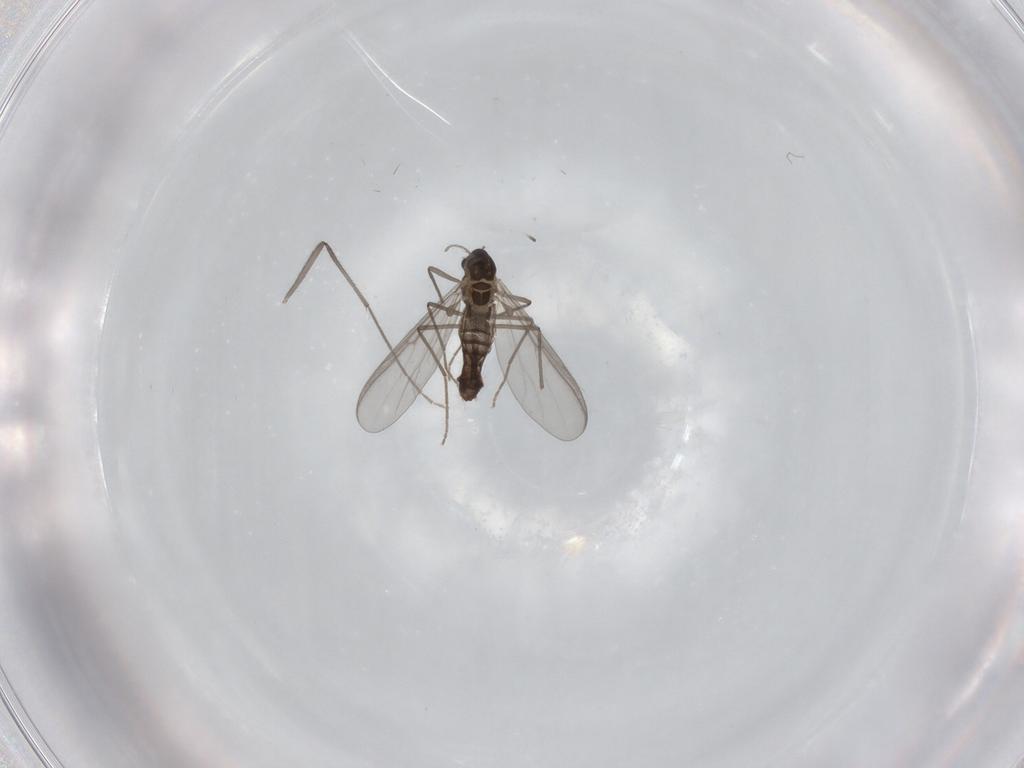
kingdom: Animalia
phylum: Arthropoda
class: Insecta
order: Diptera
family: Chironomidae
